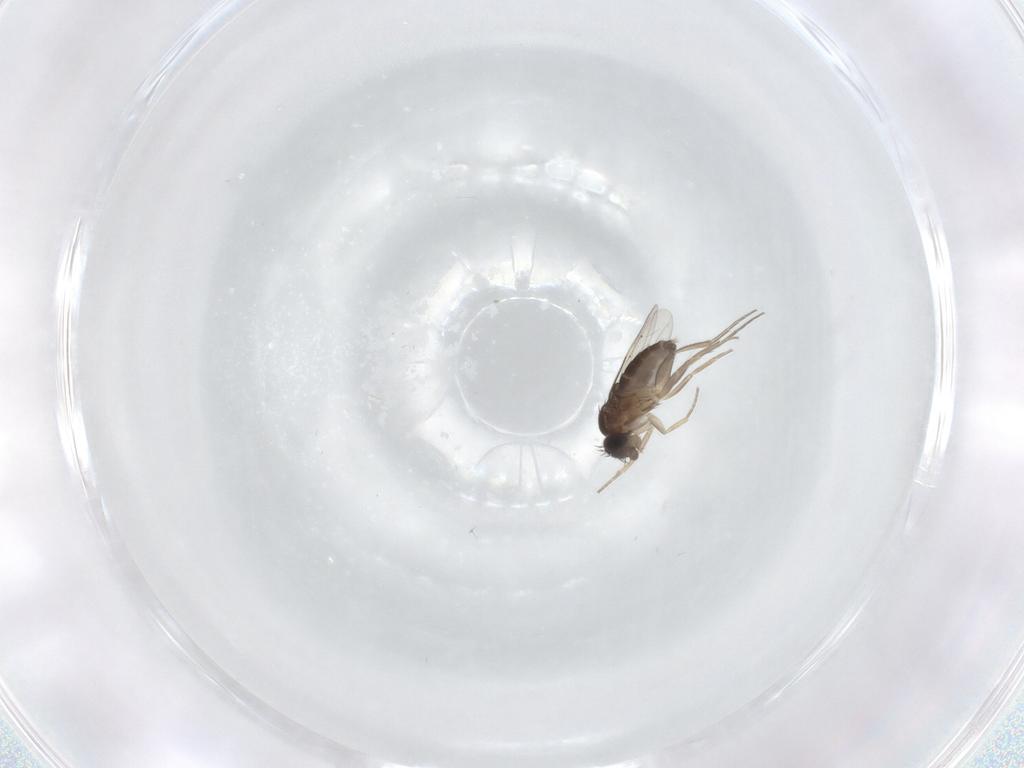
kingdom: Animalia
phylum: Arthropoda
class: Insecta
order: Diptera
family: Phoridae
